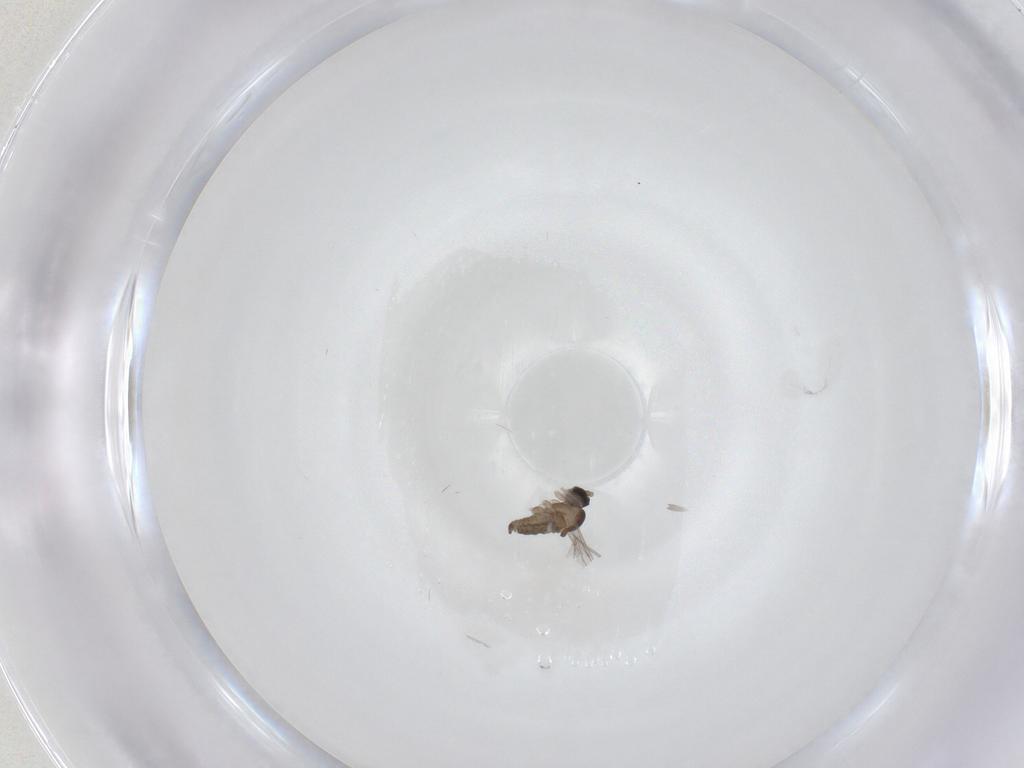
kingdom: Animalia
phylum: Arthropoda
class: Insecta
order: Diptera
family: Cecidomyiidae
